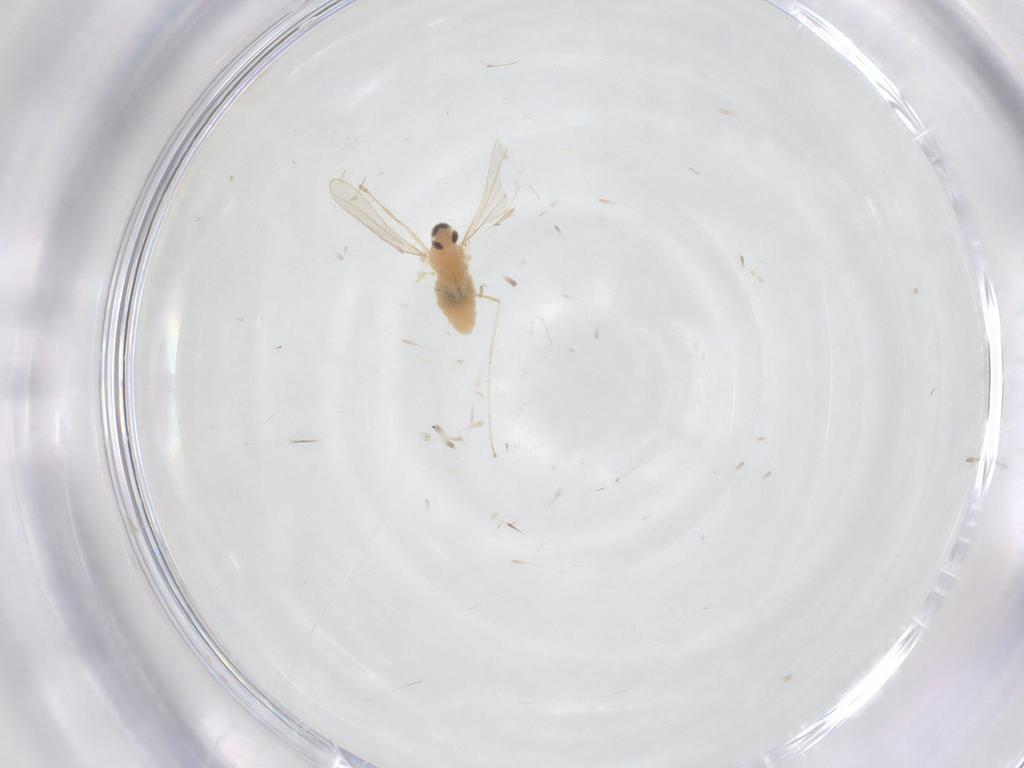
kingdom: Animalia
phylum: Arthropoda
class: Insecta
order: Diptera
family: Cecidomyiidae
